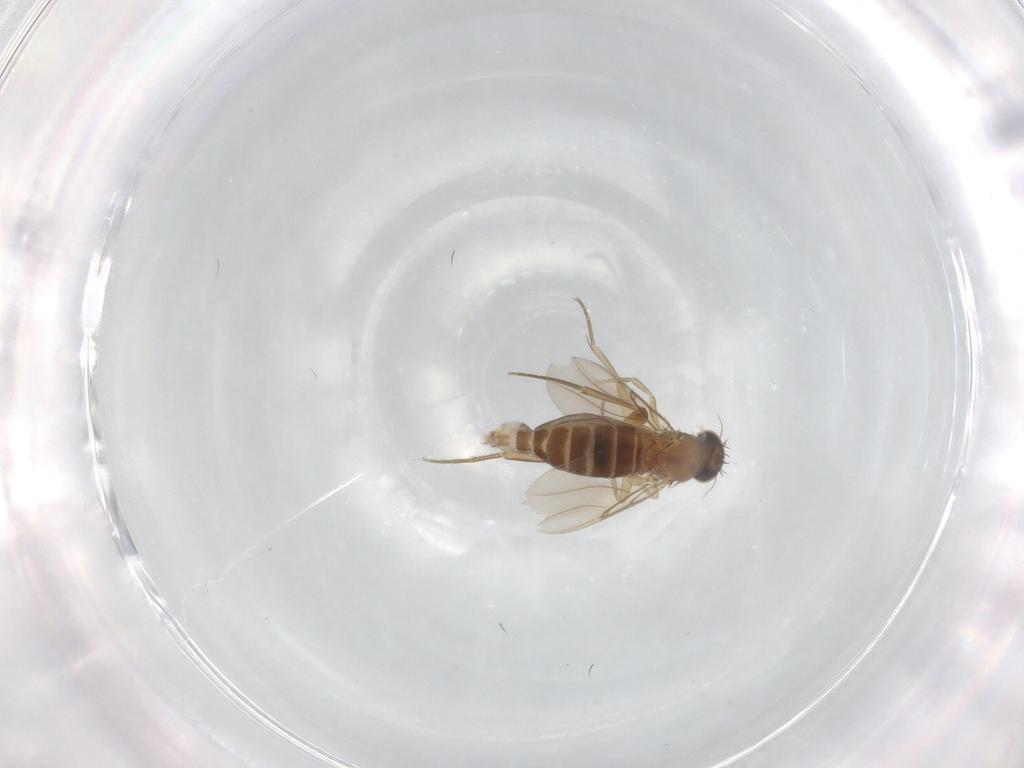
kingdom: Animalia
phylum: Arthropoda
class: Insecta
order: Diptera
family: Phoridae
